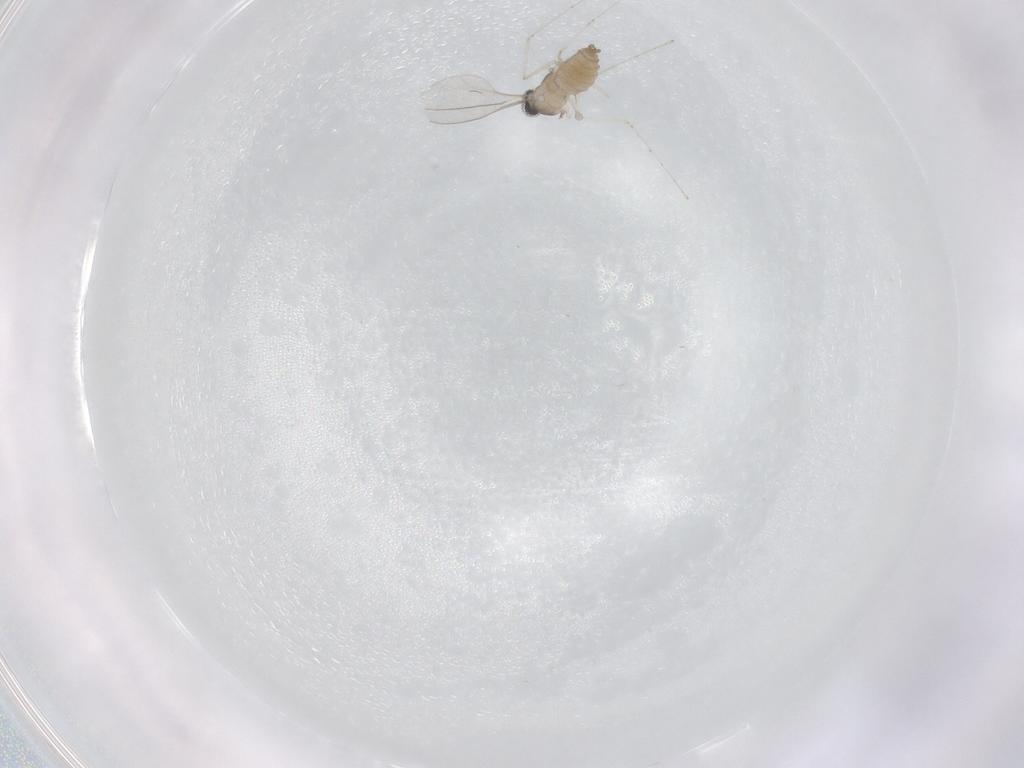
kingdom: Animalia
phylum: Arthropoda
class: Insecta
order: Diptera
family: Cecidomyiidae
